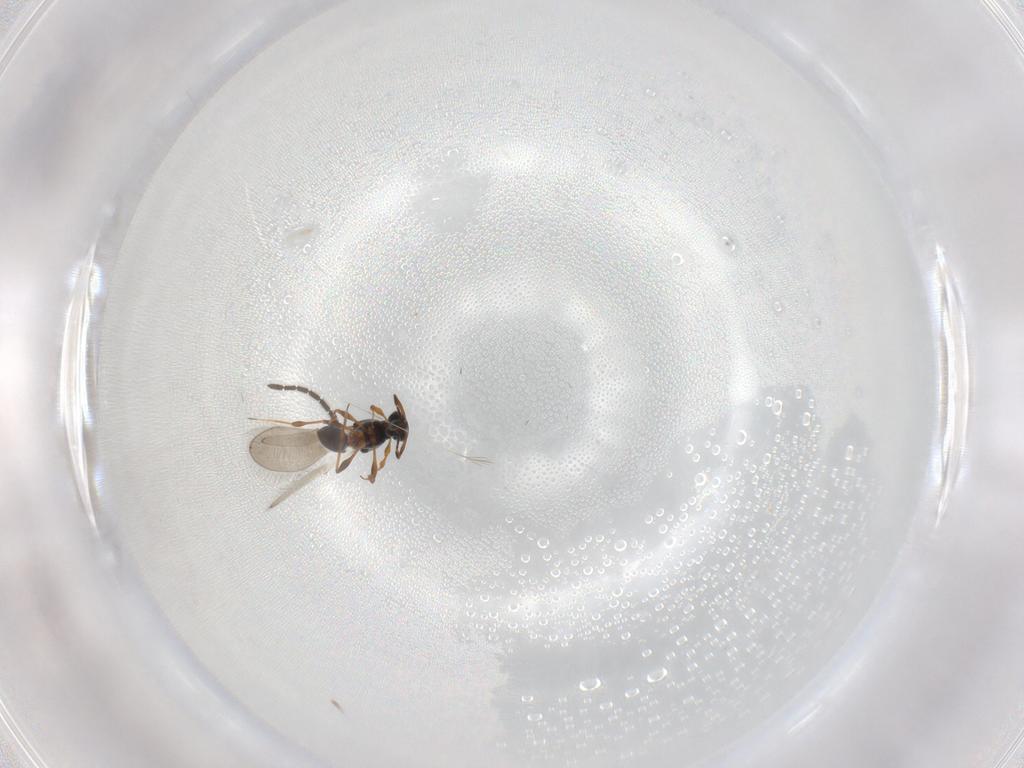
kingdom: Animalia
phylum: Arthropoda
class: Insecta
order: Hymenoptera
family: Platygastridae
